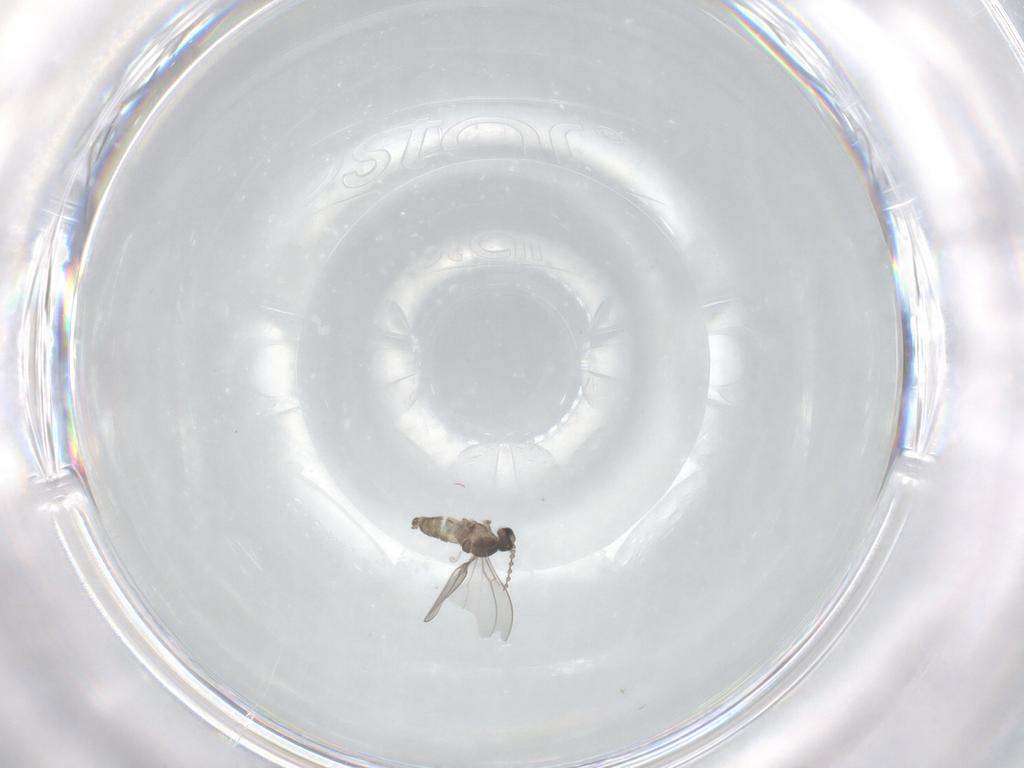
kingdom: Animalia
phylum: Arthropoda
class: Insecta
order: Diptera
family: Cecidomyiidae
